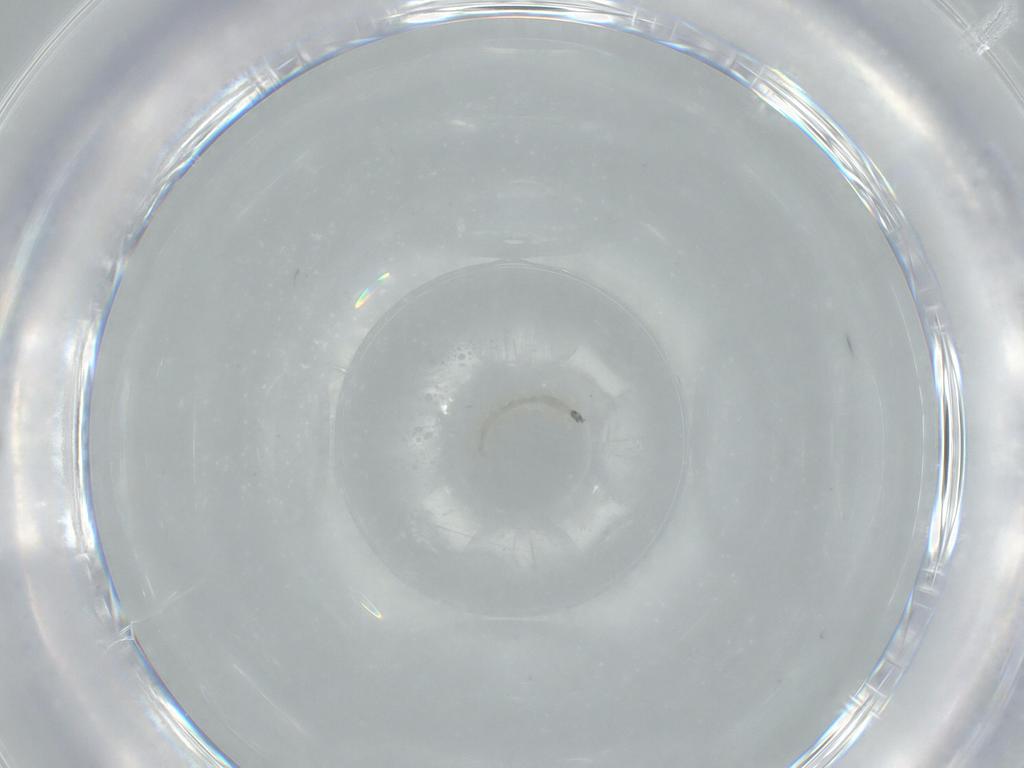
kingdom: Animalia
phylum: Arthropoda
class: Insecta
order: Diptera
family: Chironomidae
